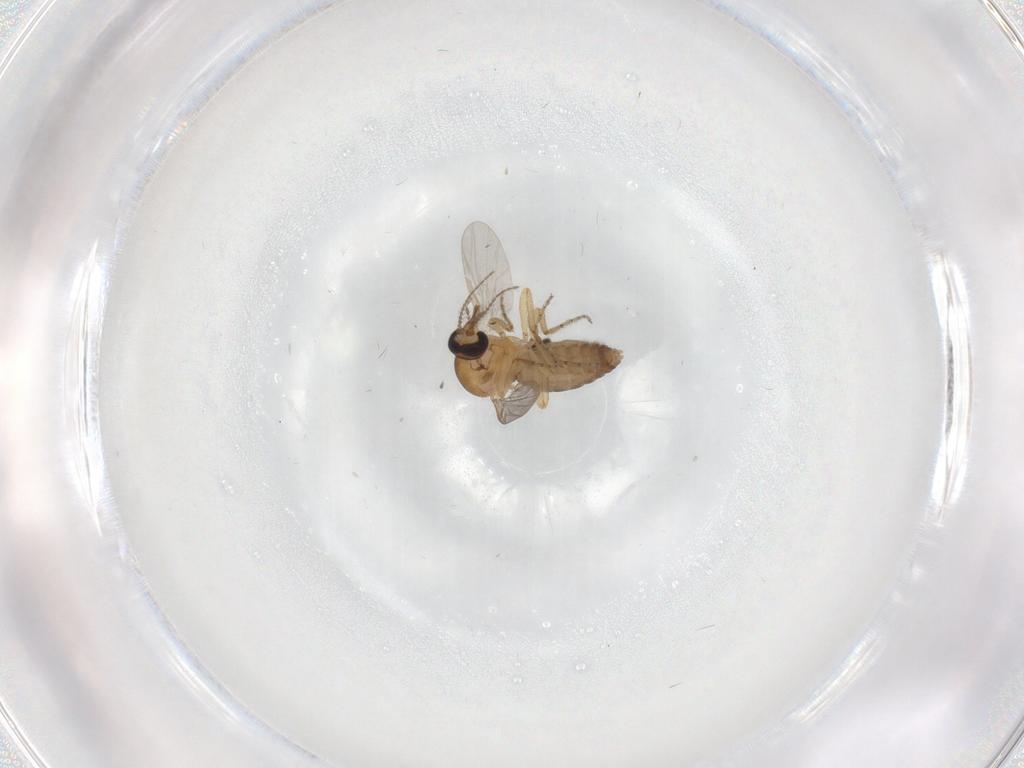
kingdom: Animalia
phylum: Arthropoda
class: Insecta
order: Diptera
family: Ceratopogonidae
